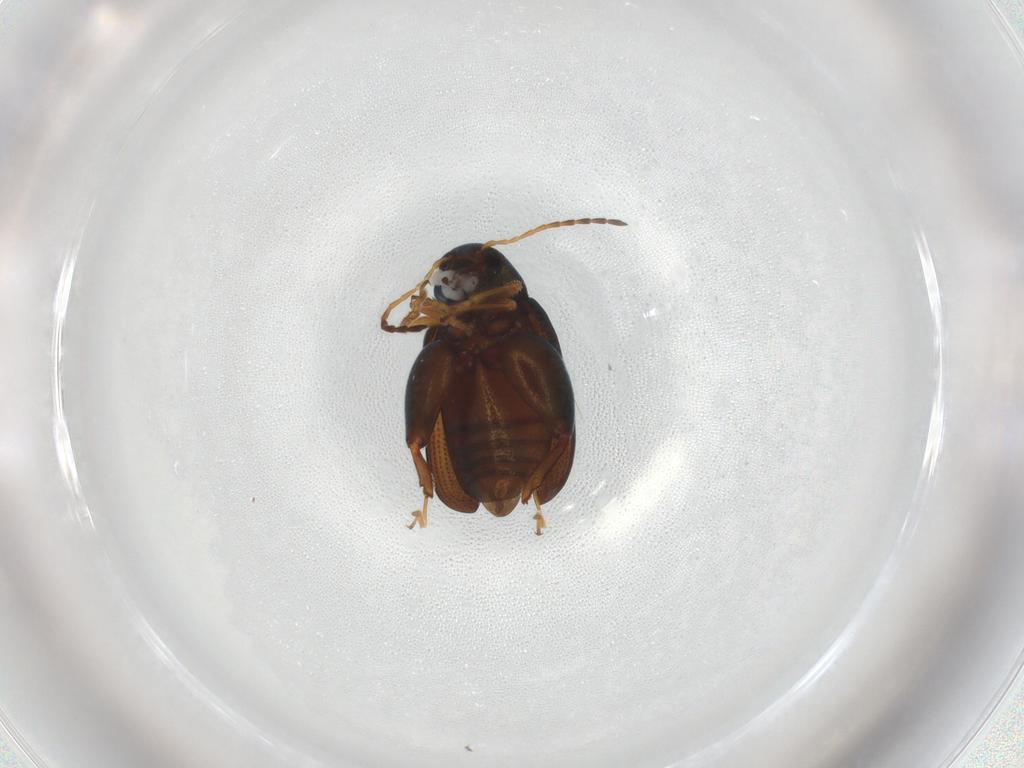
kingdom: Animalia
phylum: Arthropoda
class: Insecta
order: Coleoptera
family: Chrysomelidae
